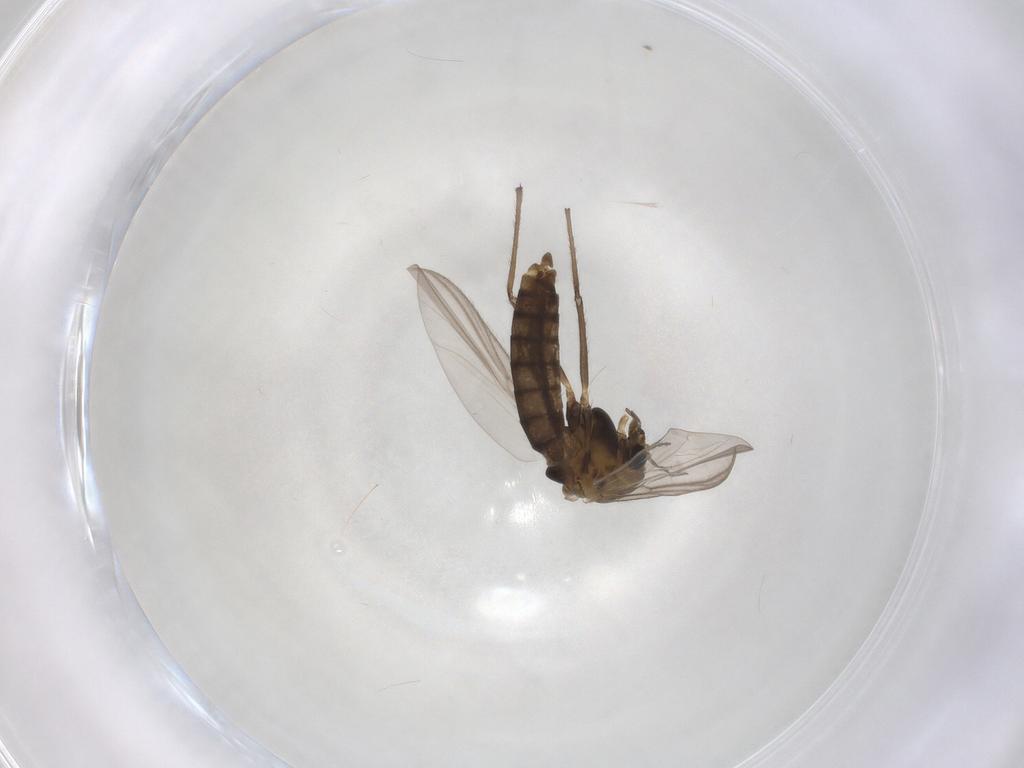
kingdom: Animalia
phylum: Arthropoda
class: Insecta
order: Diptera
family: Chironomidae
